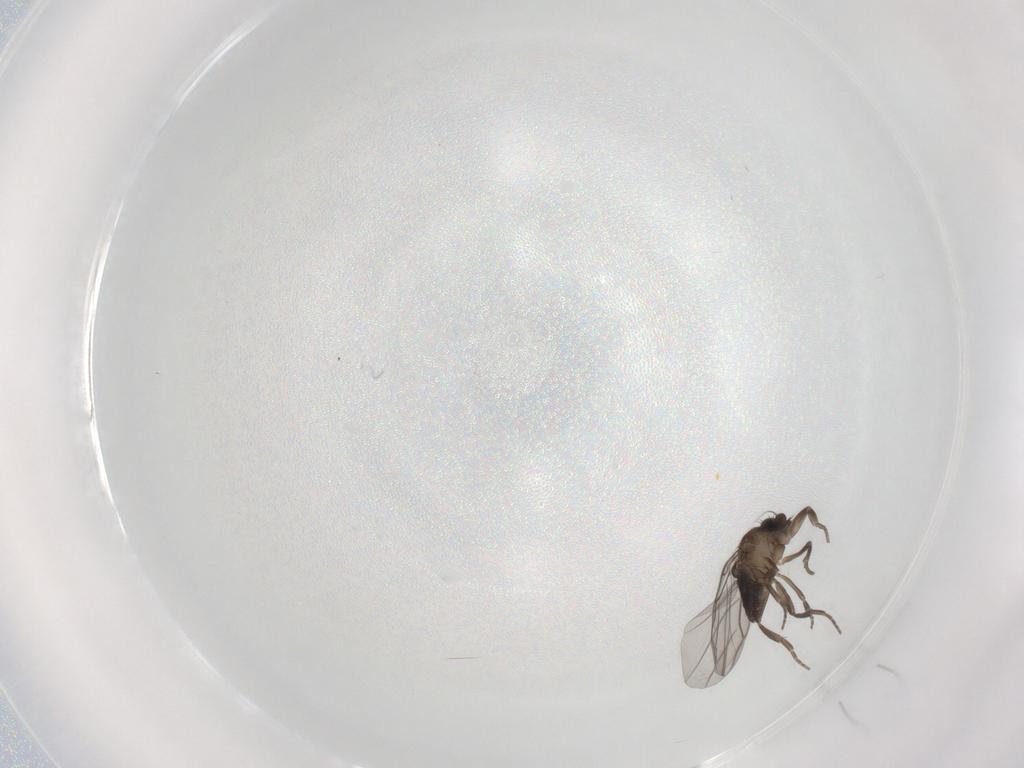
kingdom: Animalia
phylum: Arthropoda
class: Insecta
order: Diptera
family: Phoridae
